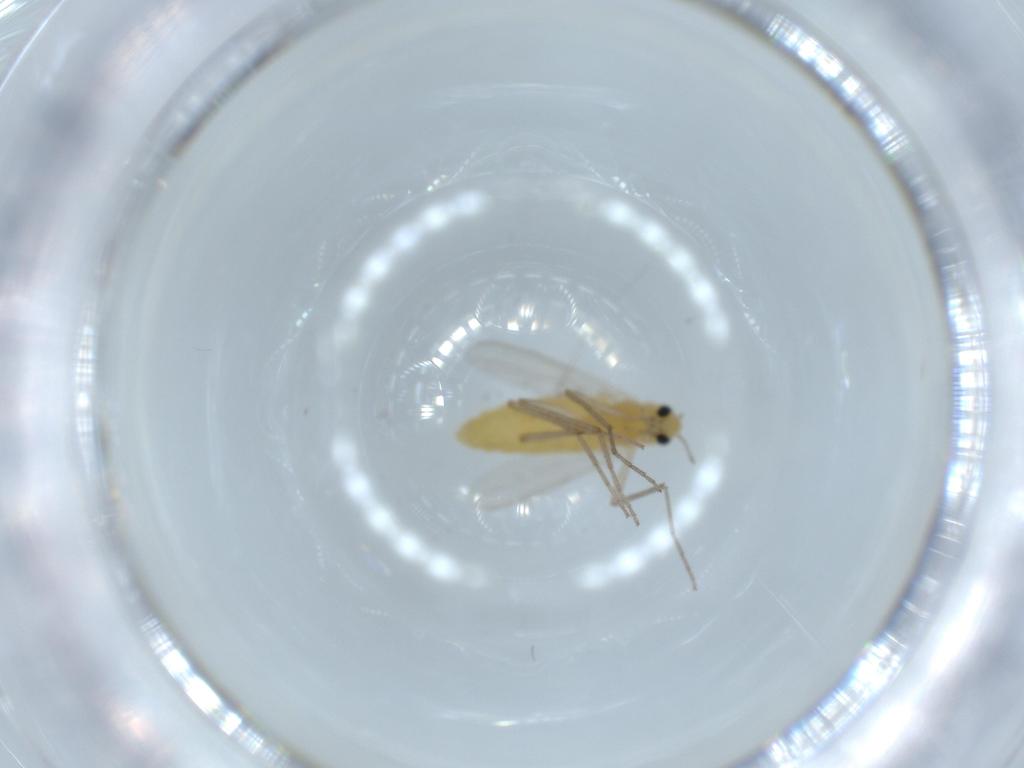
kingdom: Animalia
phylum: Arthropoda
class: Insecta
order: Diptera
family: Chironomidae
